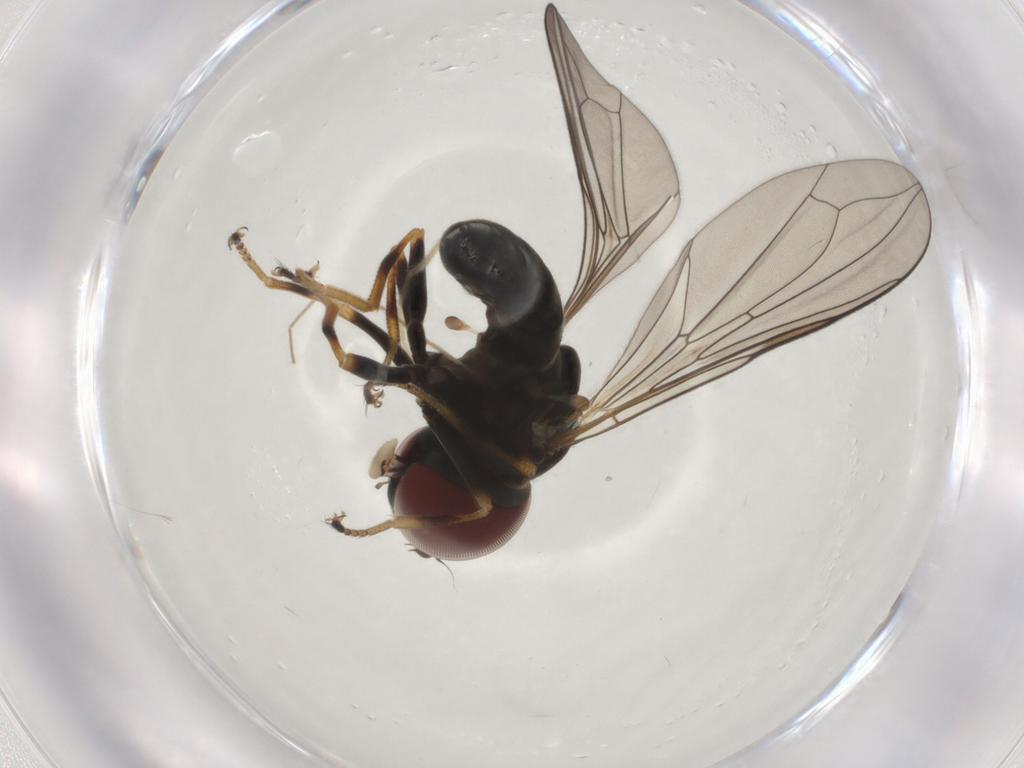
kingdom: Animalia
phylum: Arthropoda
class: Insecta
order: Diptera
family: Pipunculidae
